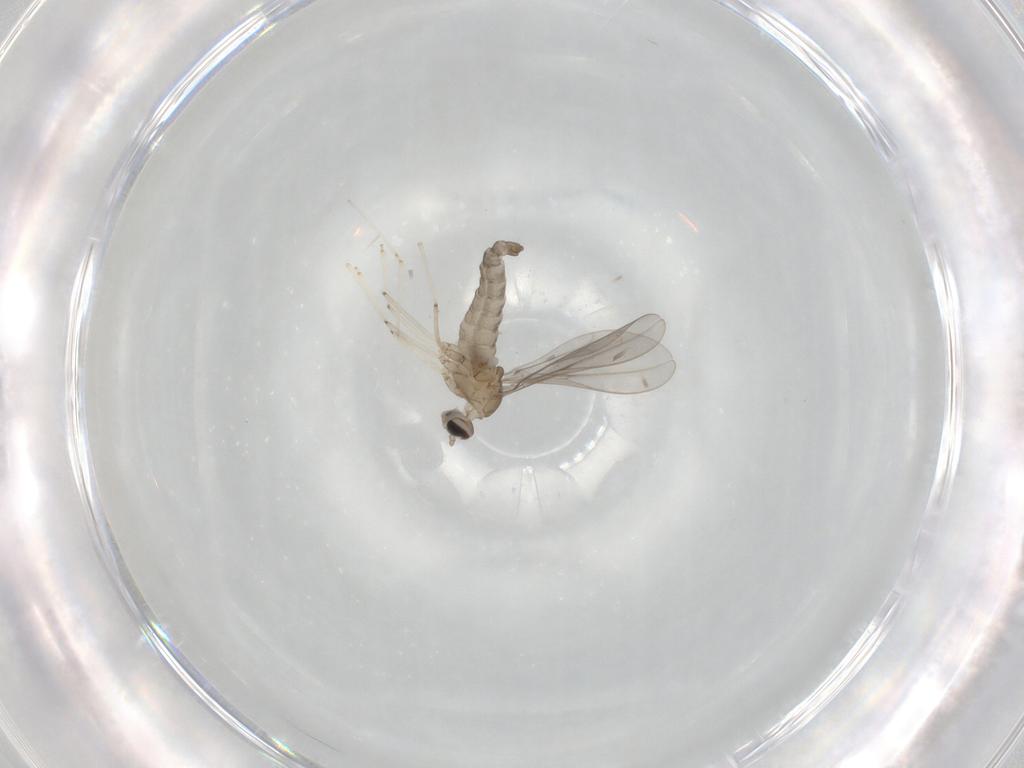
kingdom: Animalia
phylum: Arthropoda
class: Insecta
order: Diptera
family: Cecidomyiidae
